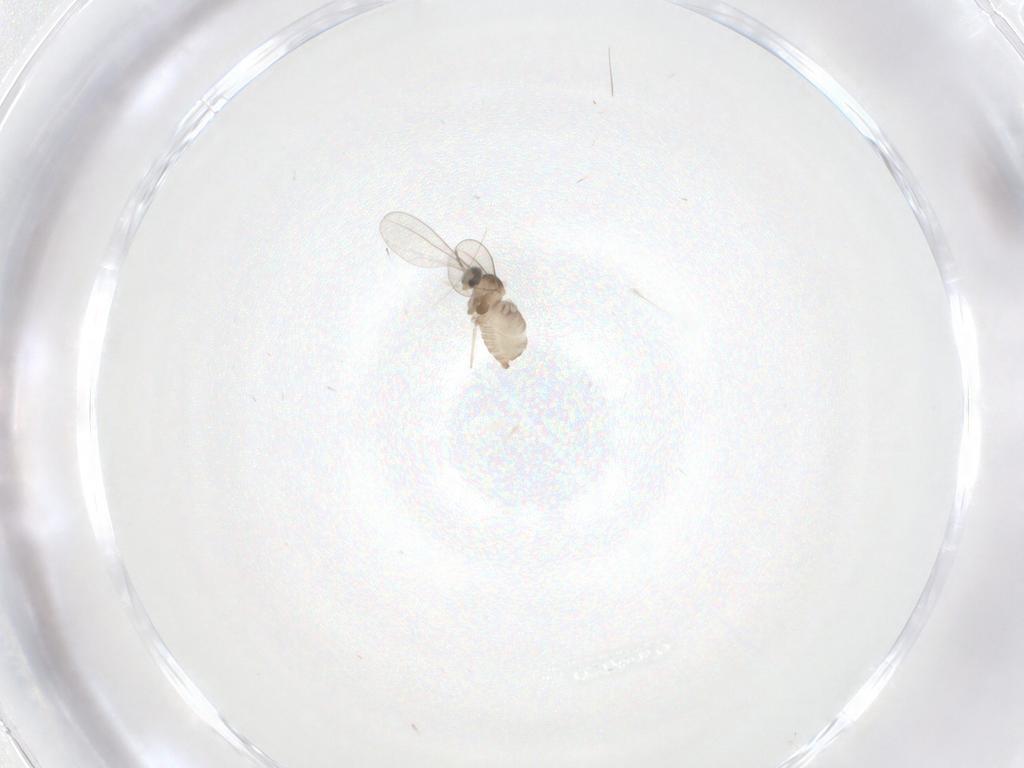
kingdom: Animalia
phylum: Arthropoda
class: Insecta
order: Diptera
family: Cecidomyiidae
